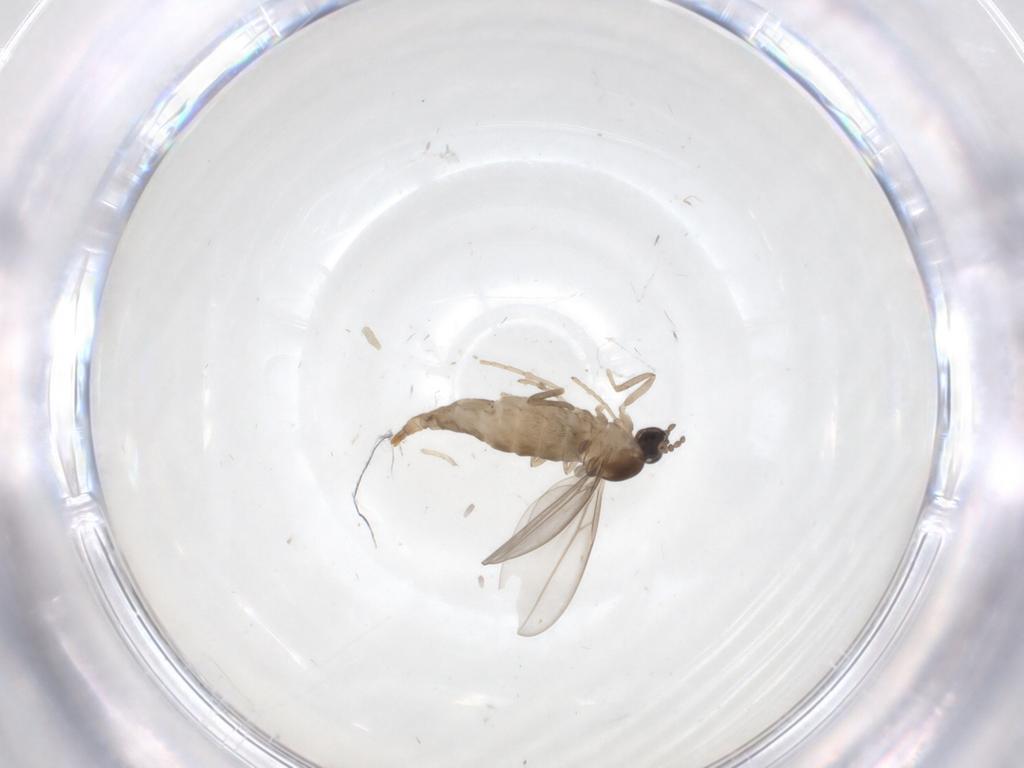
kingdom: Animalia
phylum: Arthropoda
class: Insecta
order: Diptera
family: Cecidomyiidae
